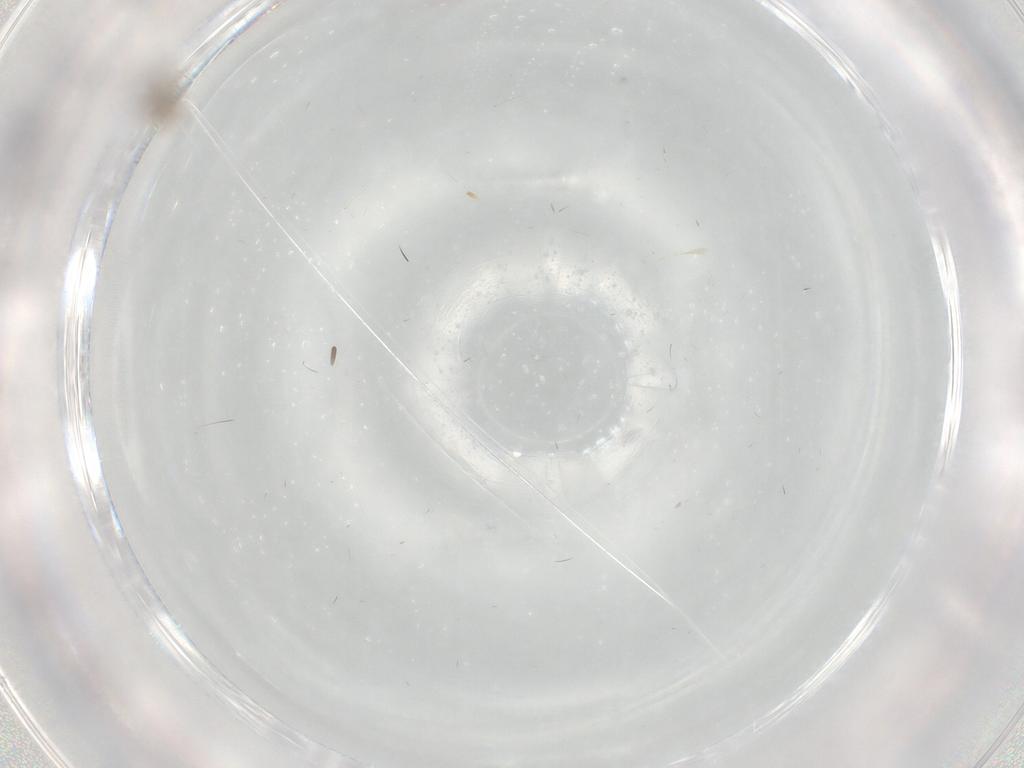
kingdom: Animalia
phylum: Arthropoda
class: Insecta
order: Diptera
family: Cecidomyiidae
